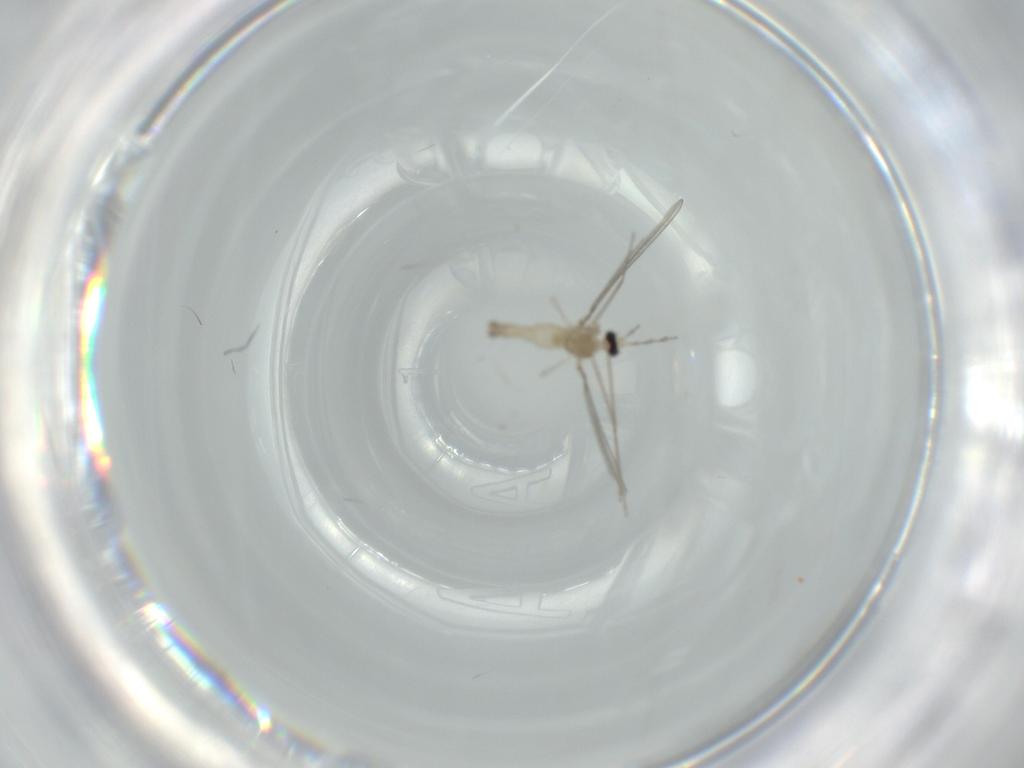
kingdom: Animalia
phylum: Arthropoda
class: Insecta
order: Diptera
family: Cecidomyiidae
